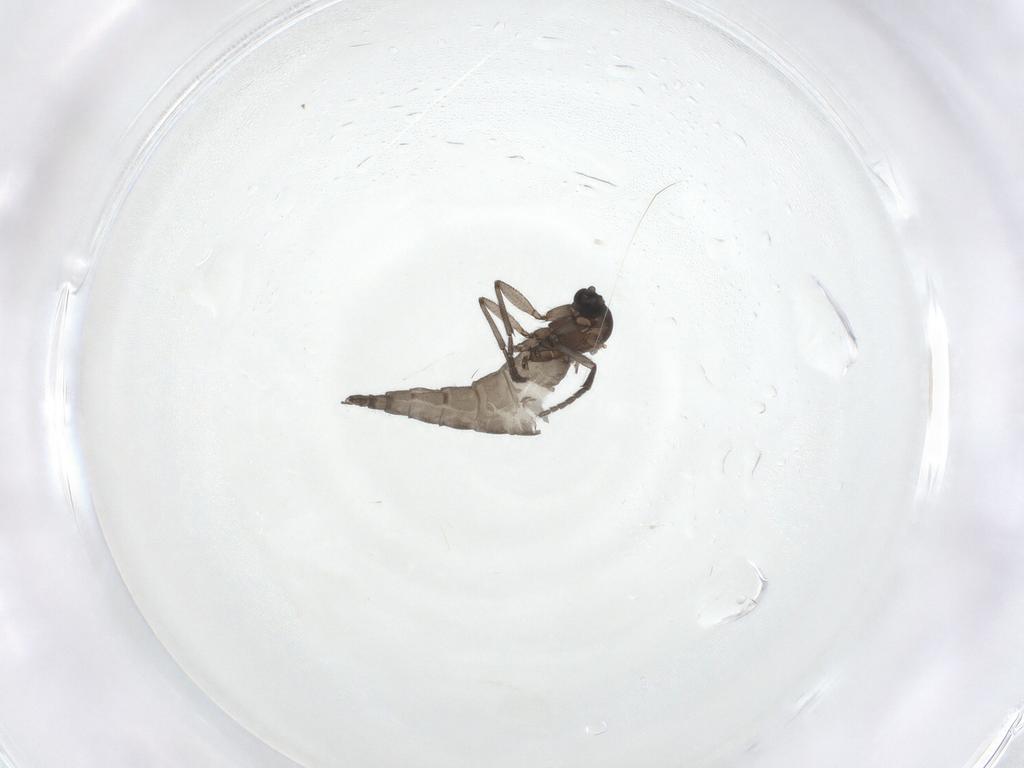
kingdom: Animalia
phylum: Arthropoda
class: Insecta
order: Diptera
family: Sciaridae
